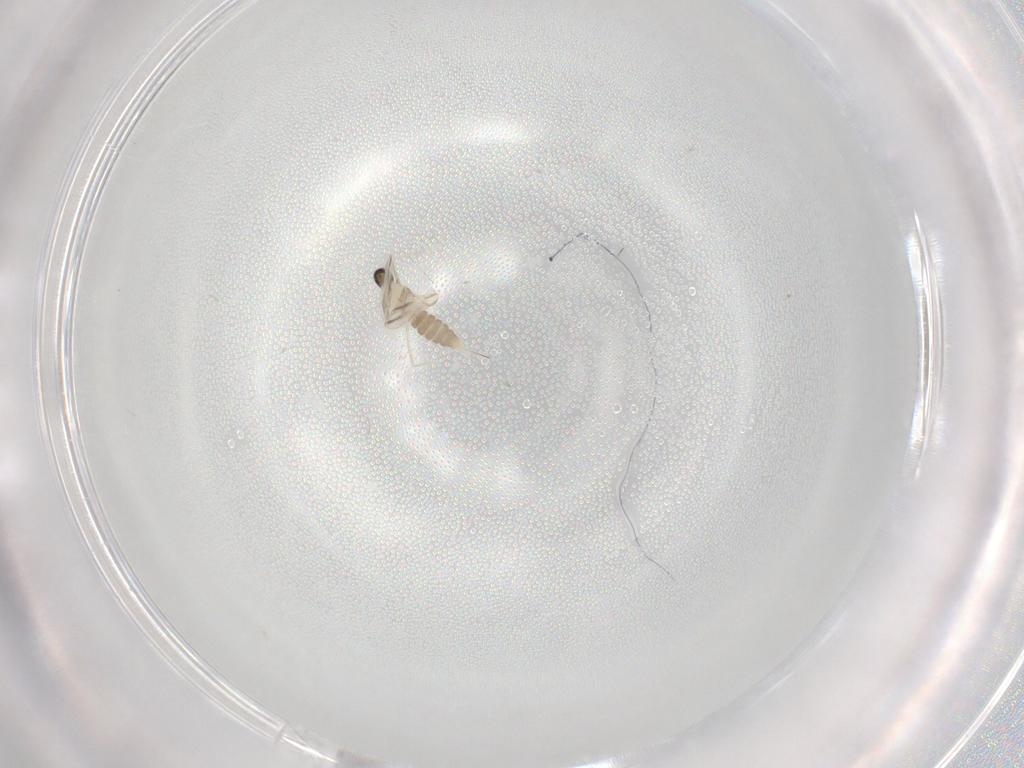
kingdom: Animalia
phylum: Arthropoda
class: Insecta
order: Diptera
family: Cecidomyiidae
